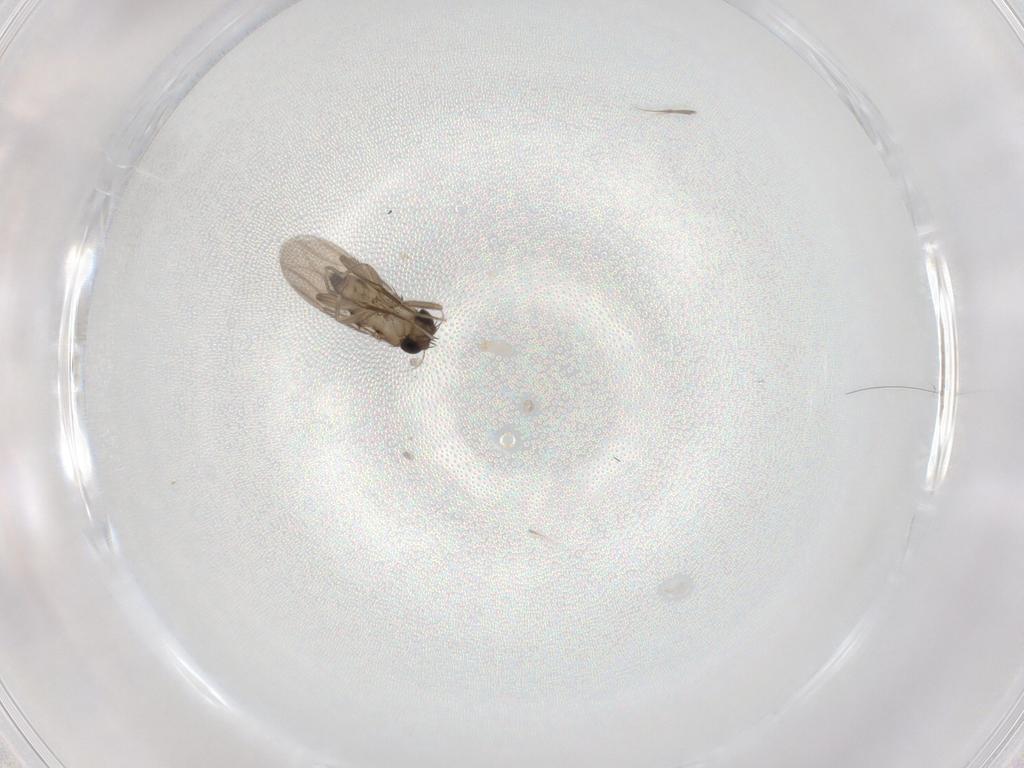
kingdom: Animalia
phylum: Arthropoda
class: Insecta
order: Diptera
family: Phoridae
